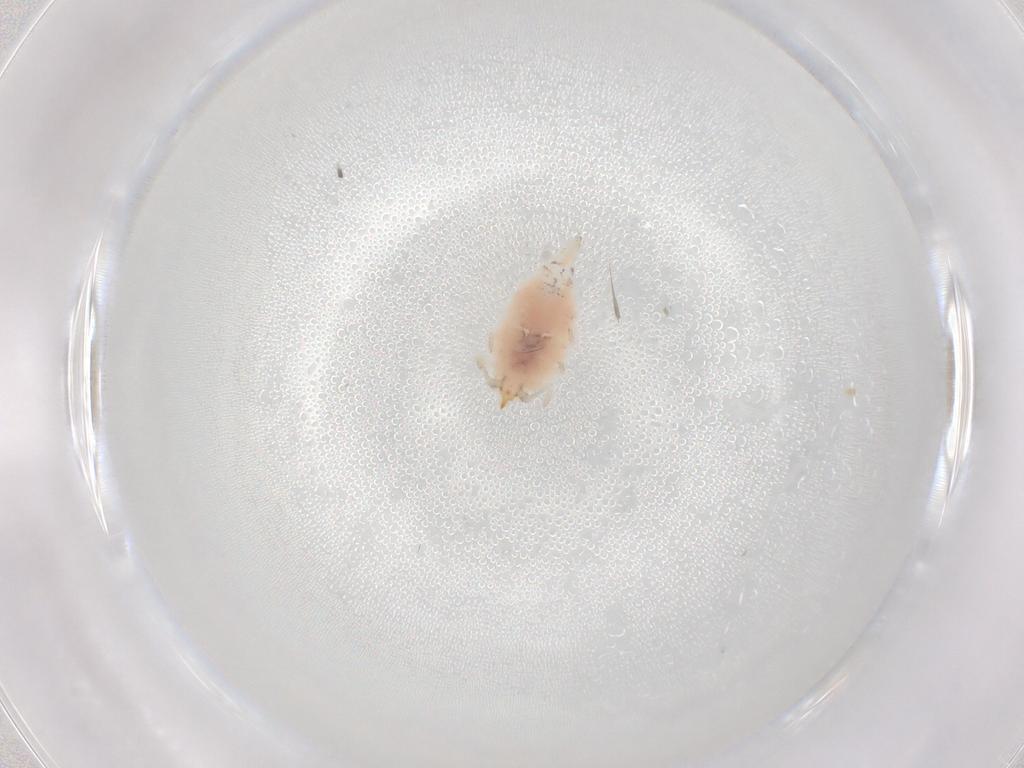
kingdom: Animalia
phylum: Arthropoda
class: Insecta
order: Neuroptera
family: Coniopterygidae
